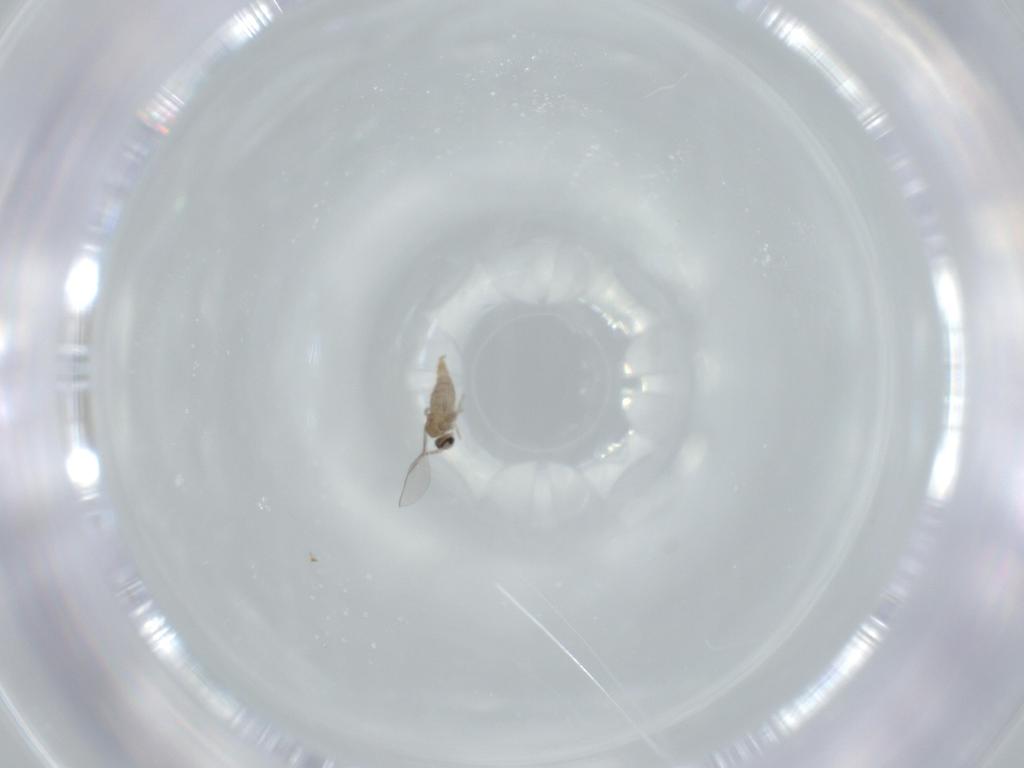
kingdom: Animalia
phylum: Arthropoda
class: Insecta
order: Diptera
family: Cecidomyiidae
